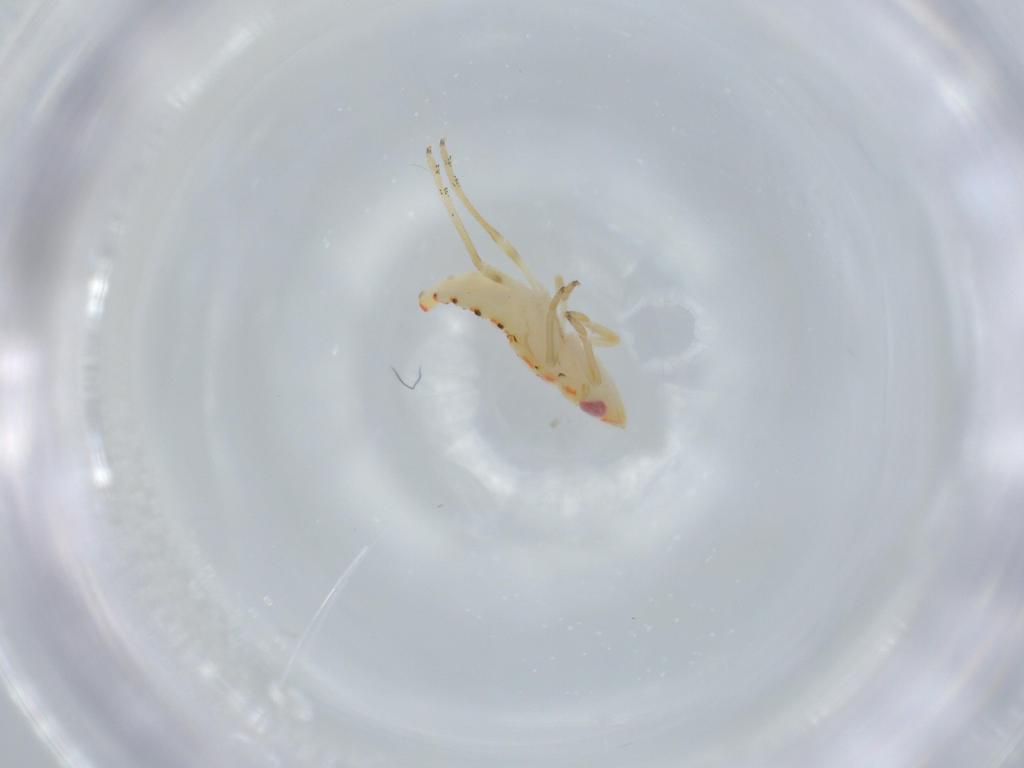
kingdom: Animalia
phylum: Arthropoda
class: Insecta
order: Hemiptera
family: Tropiduchidae
